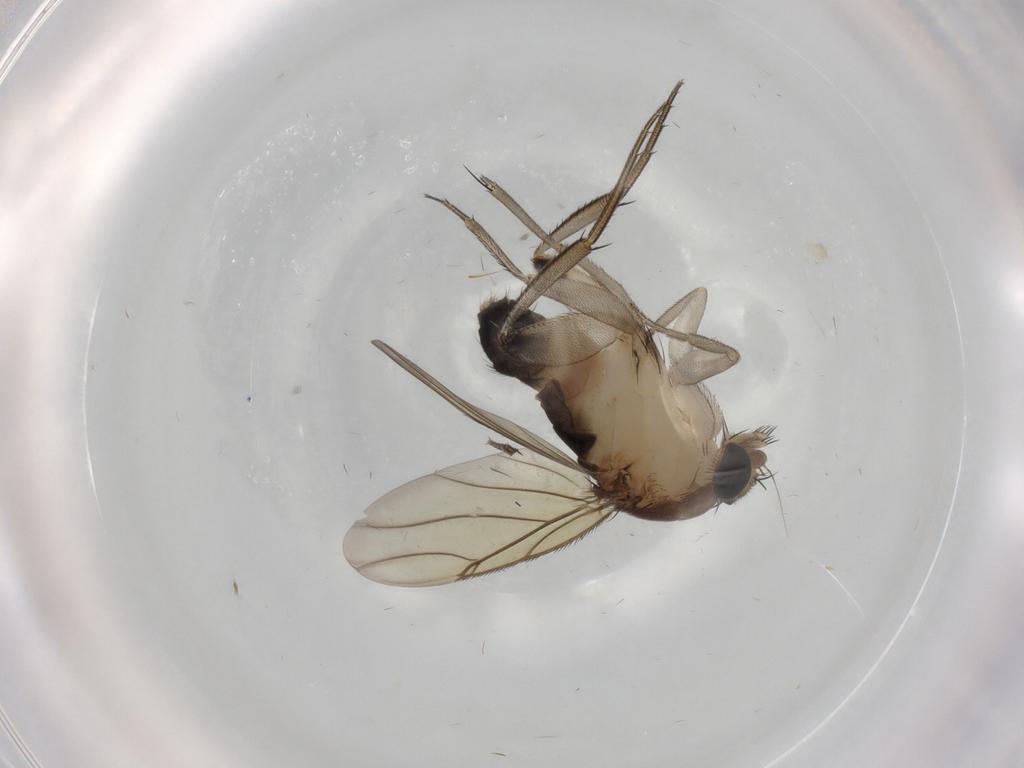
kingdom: Animalia
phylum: Arthropoda
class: Insecta
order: Diptera
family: Phoridae
